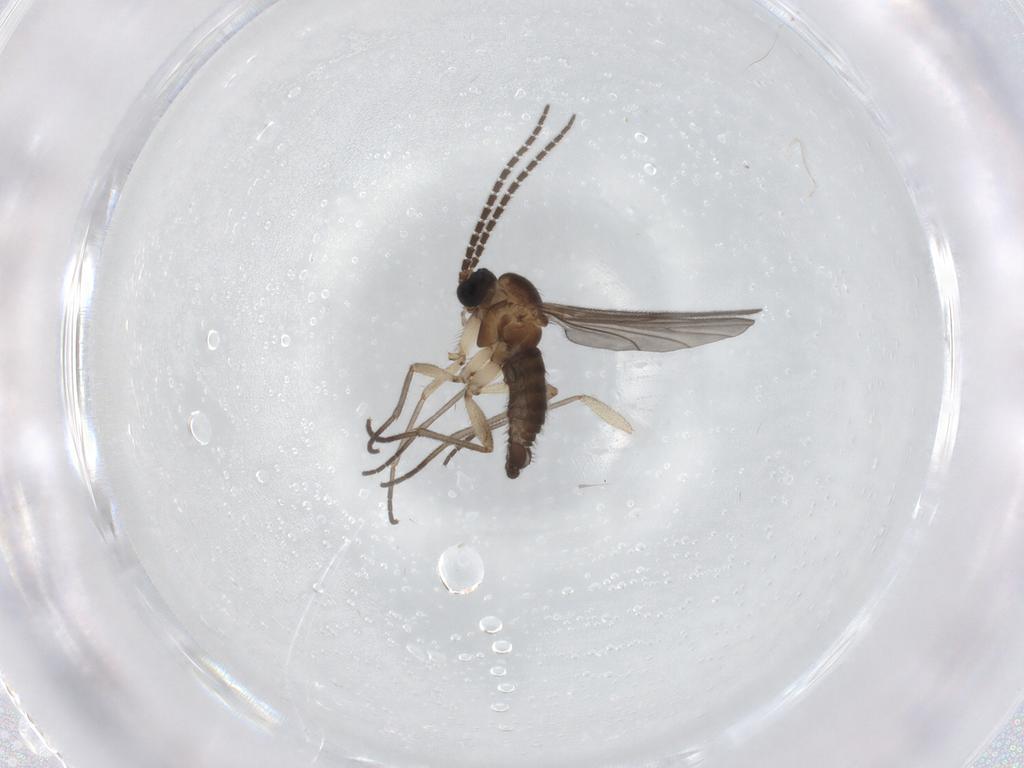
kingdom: Animalia
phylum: Arthropoda
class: Insecta
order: Diptera
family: Sciaridae
